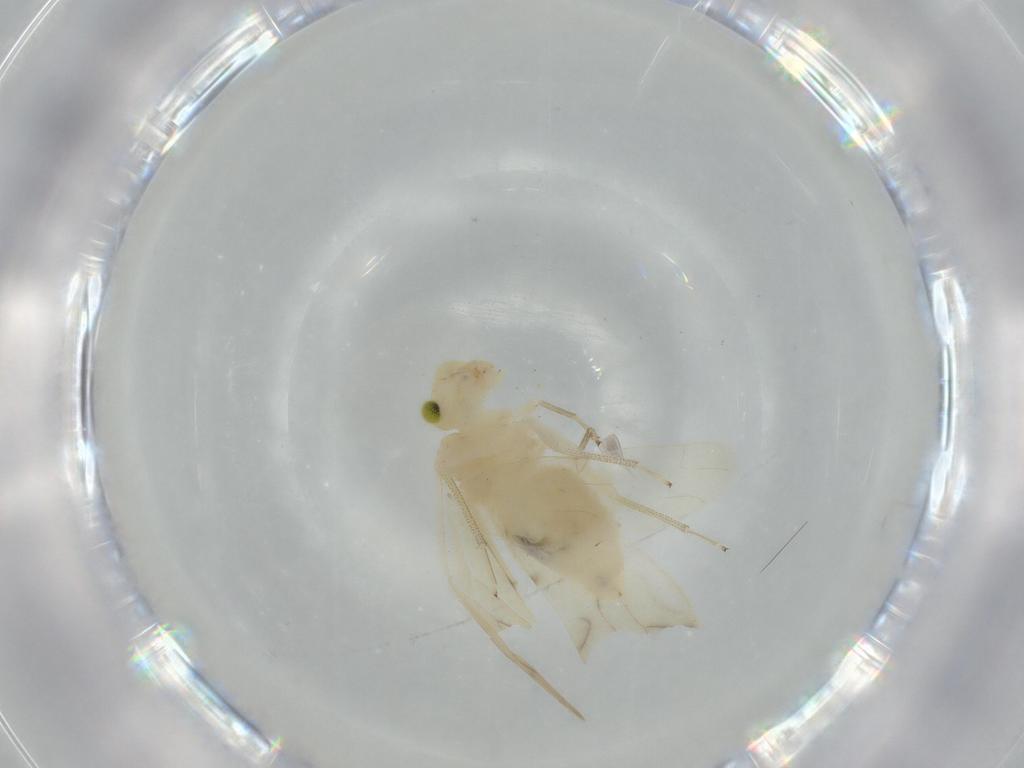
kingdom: Animalia
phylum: Arthropoda
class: Insecta
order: Psocodea
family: Caeciliusidae
